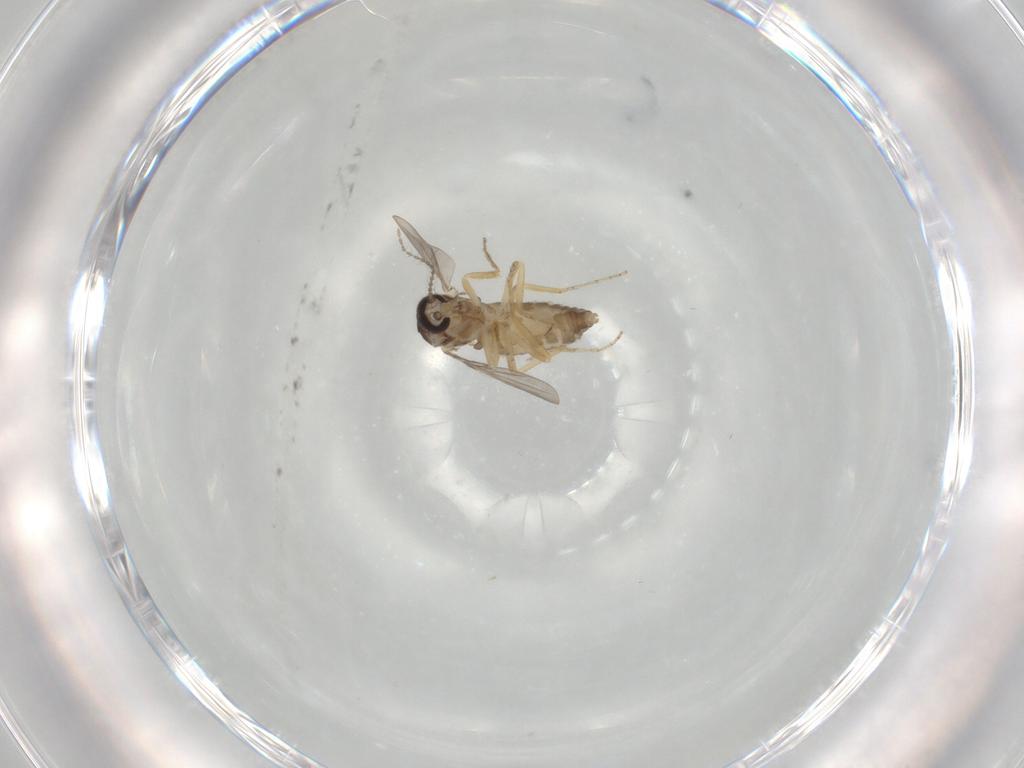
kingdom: Animalia
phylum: Arthropoda
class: Insecta
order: Diptera
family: Ceratopogonidae
